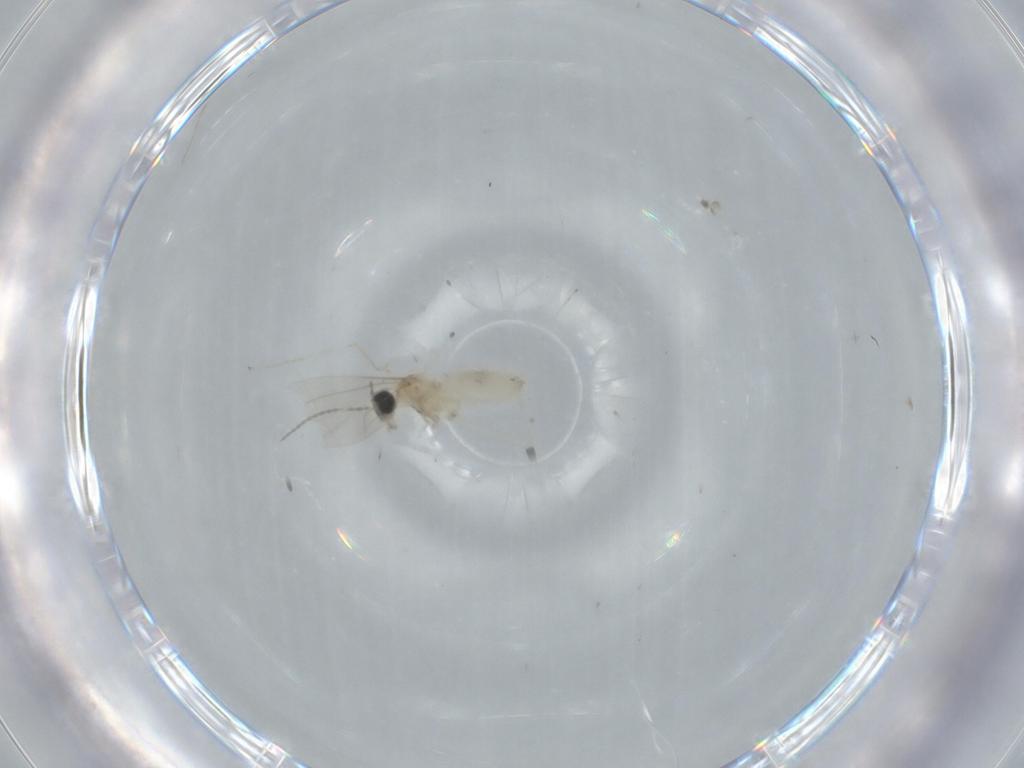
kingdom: Animalia
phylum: Arthropoda
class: Insecta
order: Diptera
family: Cecidomyiidae
